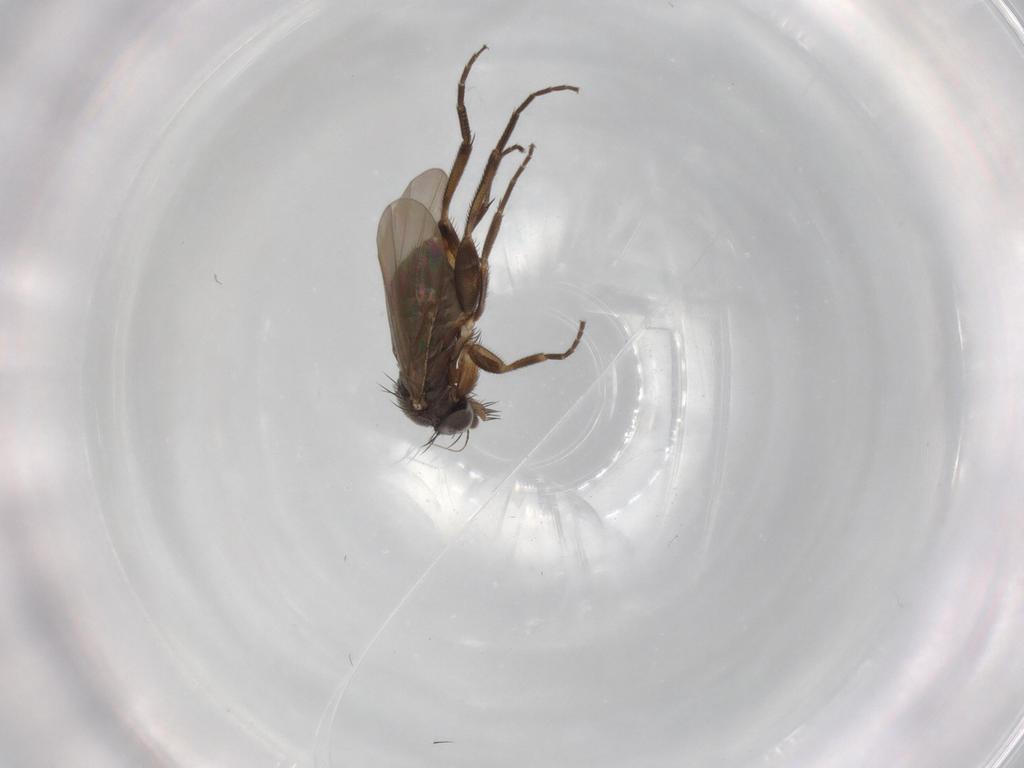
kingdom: Animalia
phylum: Arthropoda
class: Insecta
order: Diptera
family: Phoridae
